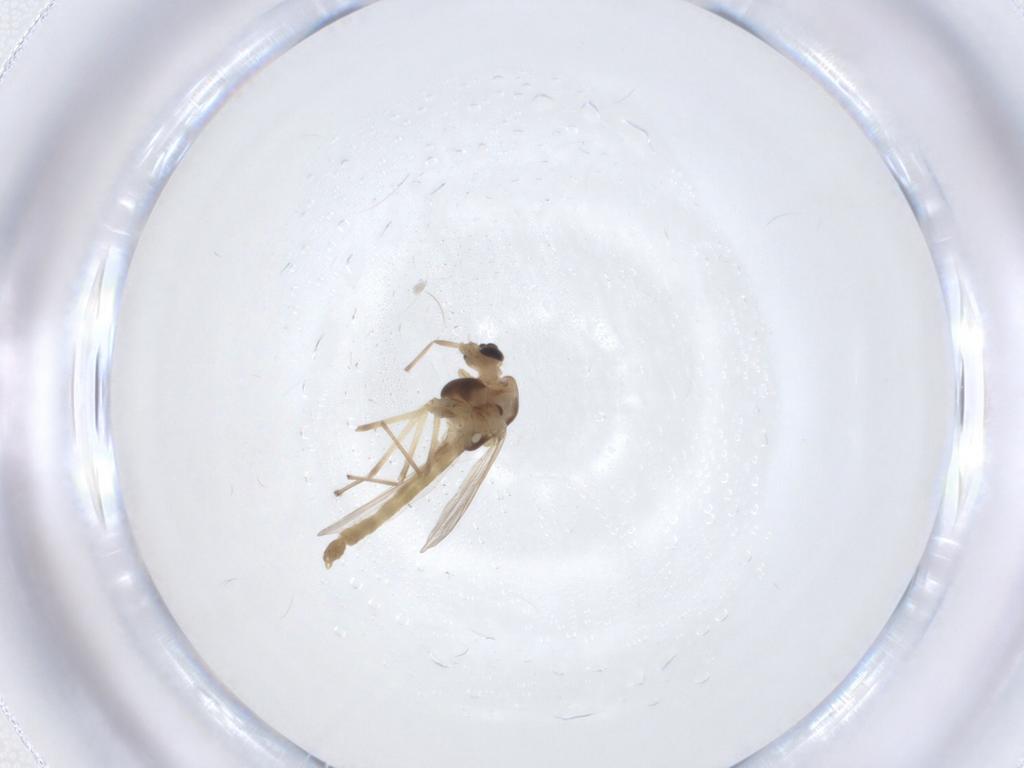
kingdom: Animalia
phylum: Arthropoda
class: Insecta
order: Diptera
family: Chironomidae
